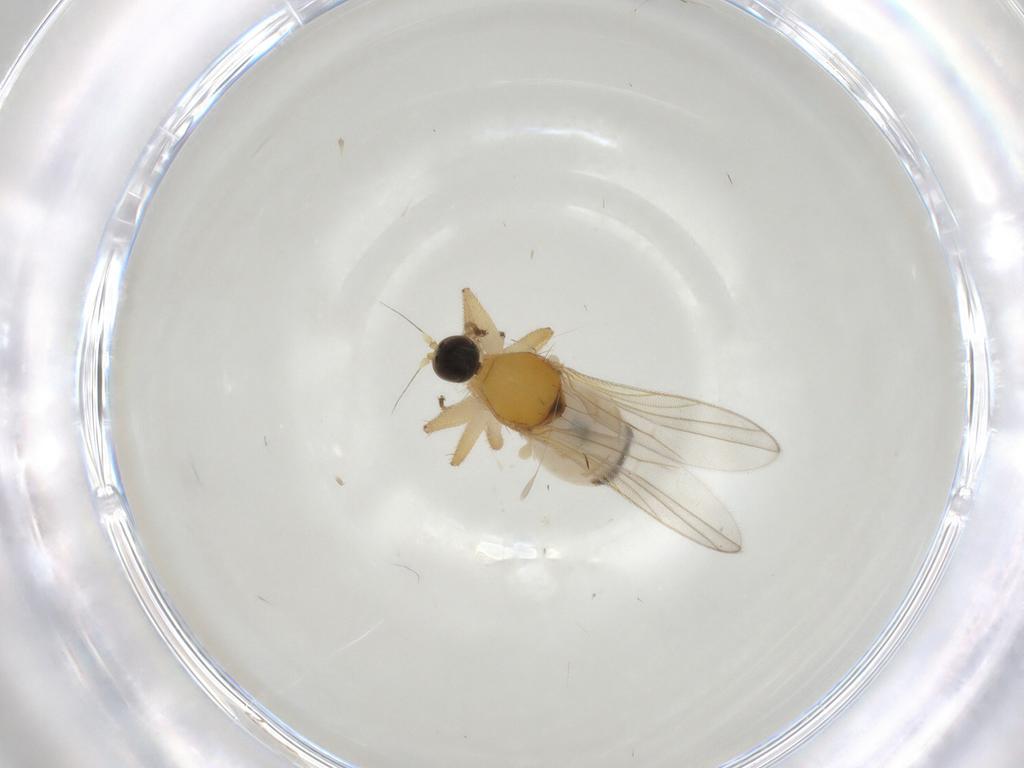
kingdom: Animalia
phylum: Arthropoda
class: Insecta
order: Diptera
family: Hybotidae
